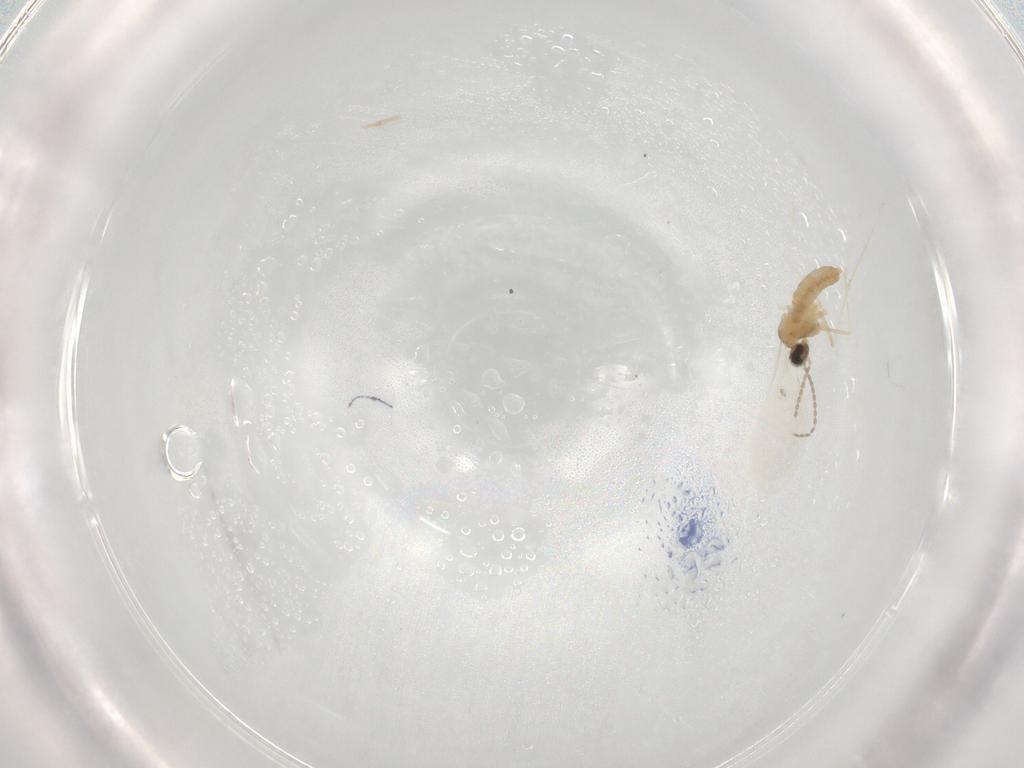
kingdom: Animalia
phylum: Arthropoda
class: Insecta
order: Diptera
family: Cecidomyiidae
